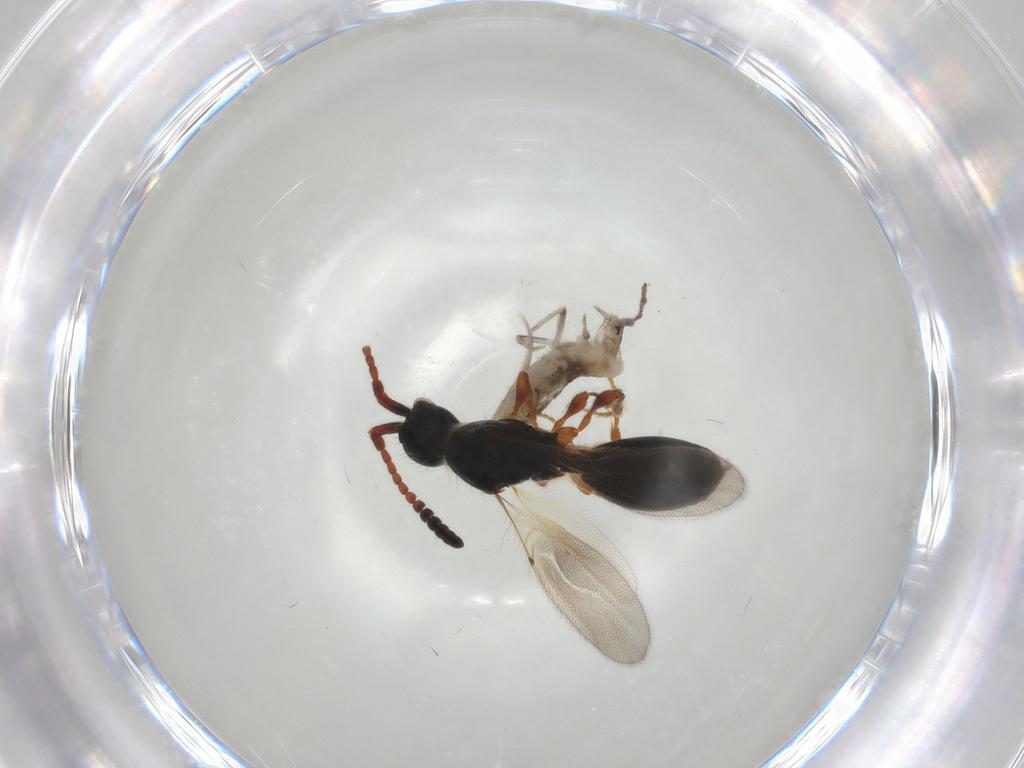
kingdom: Animalia
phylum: Arthropoda
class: Insecta
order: Hymenoptera
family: Diapriidae
